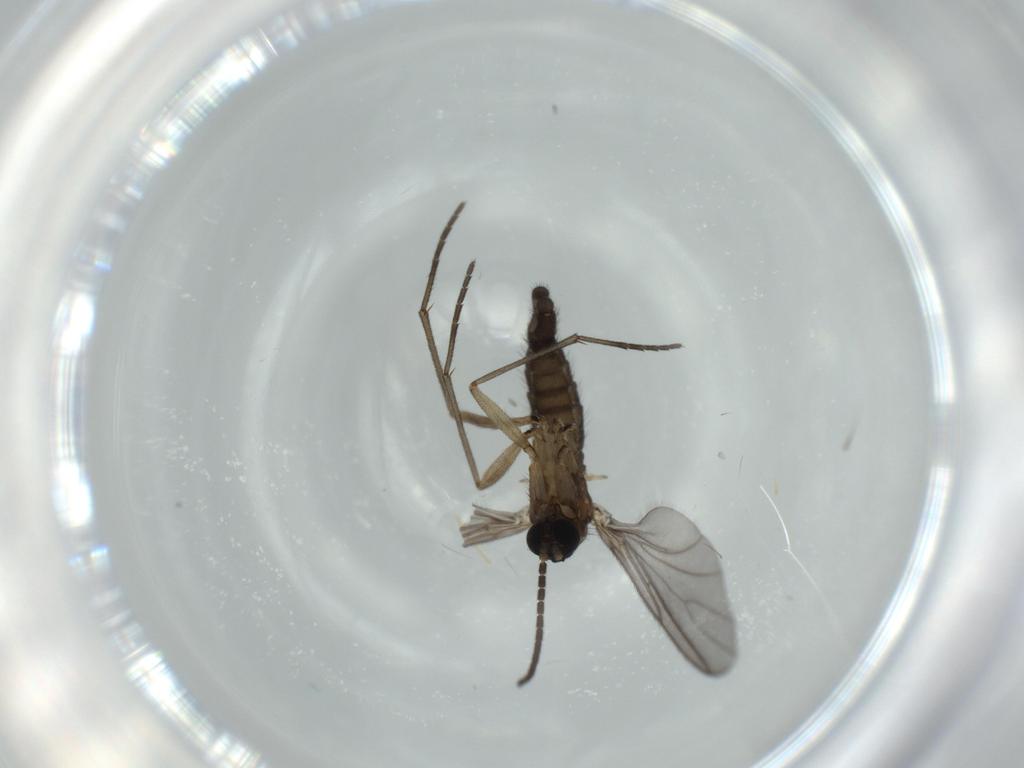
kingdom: Animalia
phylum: Arthropoda
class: Insecta
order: Diptera
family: Sciaridae
